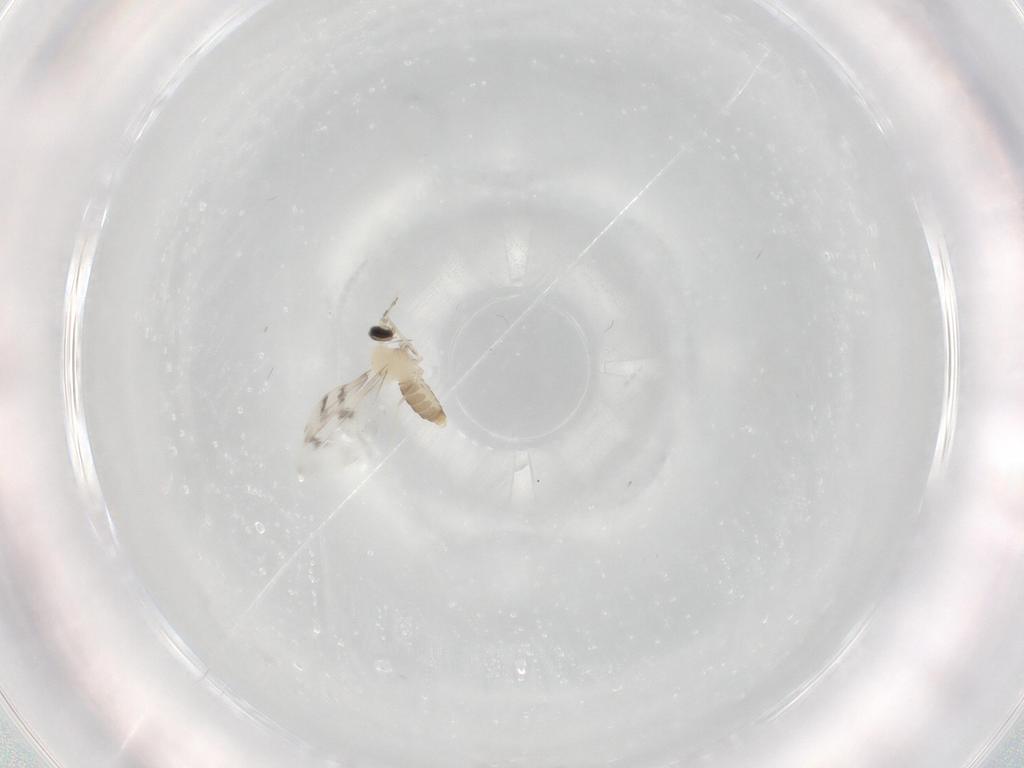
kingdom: Animalia
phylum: Arthropoda
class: Insecta
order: Diptera
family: Cecidomyiidae
